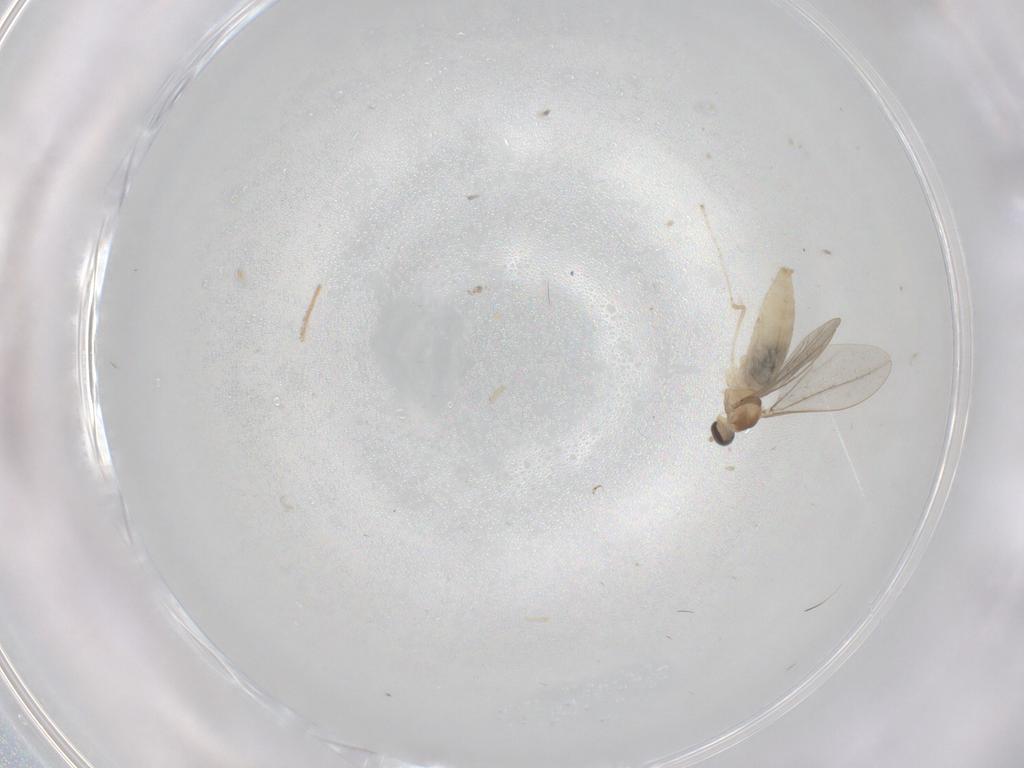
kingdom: Animalia
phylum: Arthropoda
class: Insecta
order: Diptera
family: Cecidomyiidae
